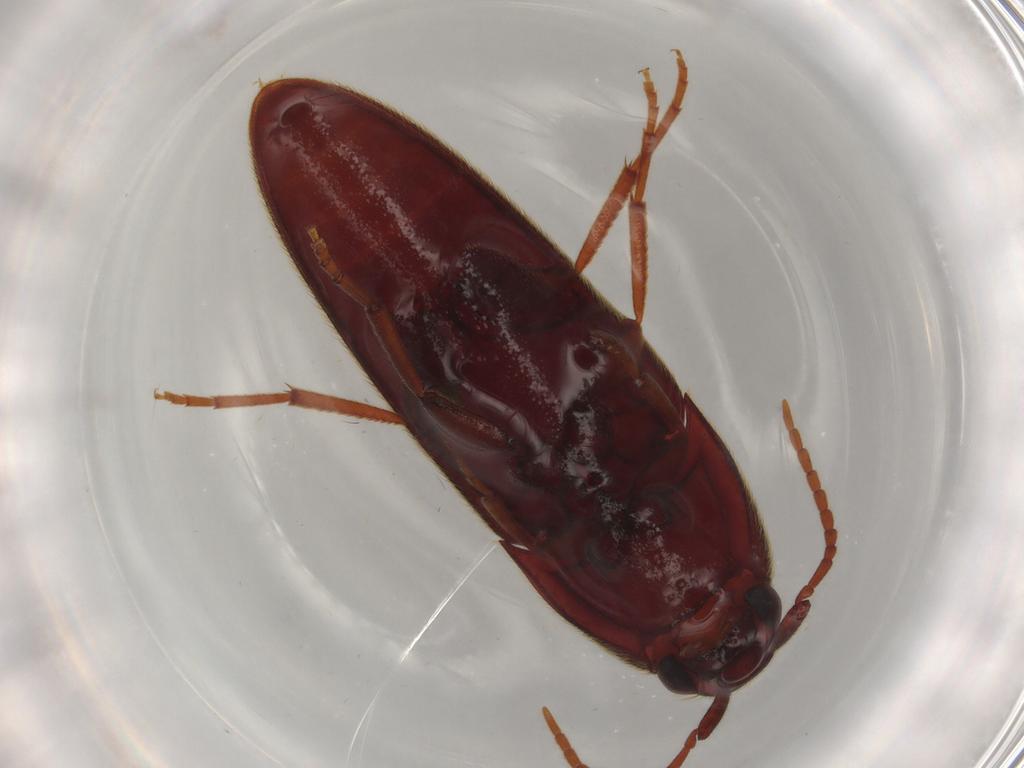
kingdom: Animalia
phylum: Arthropoda
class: Insecta
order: Coleoptera
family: Eucnemidae
